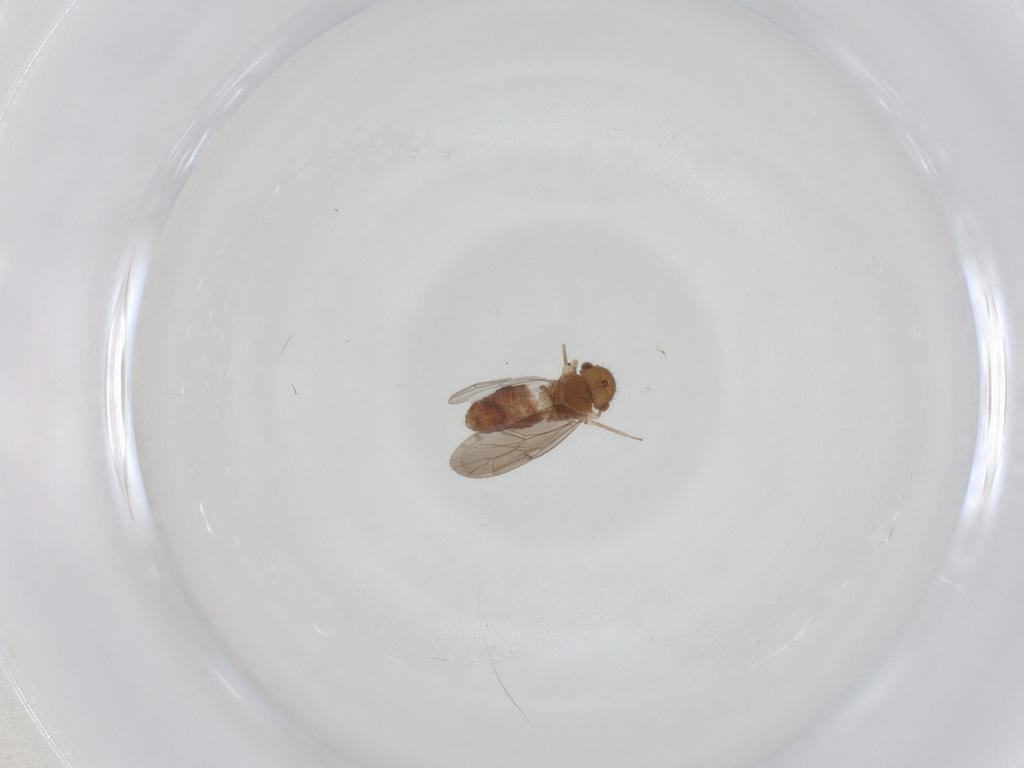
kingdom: Animalia
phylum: Arthropoda
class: Insecta
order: Psocodea
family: Ectopsocidae
